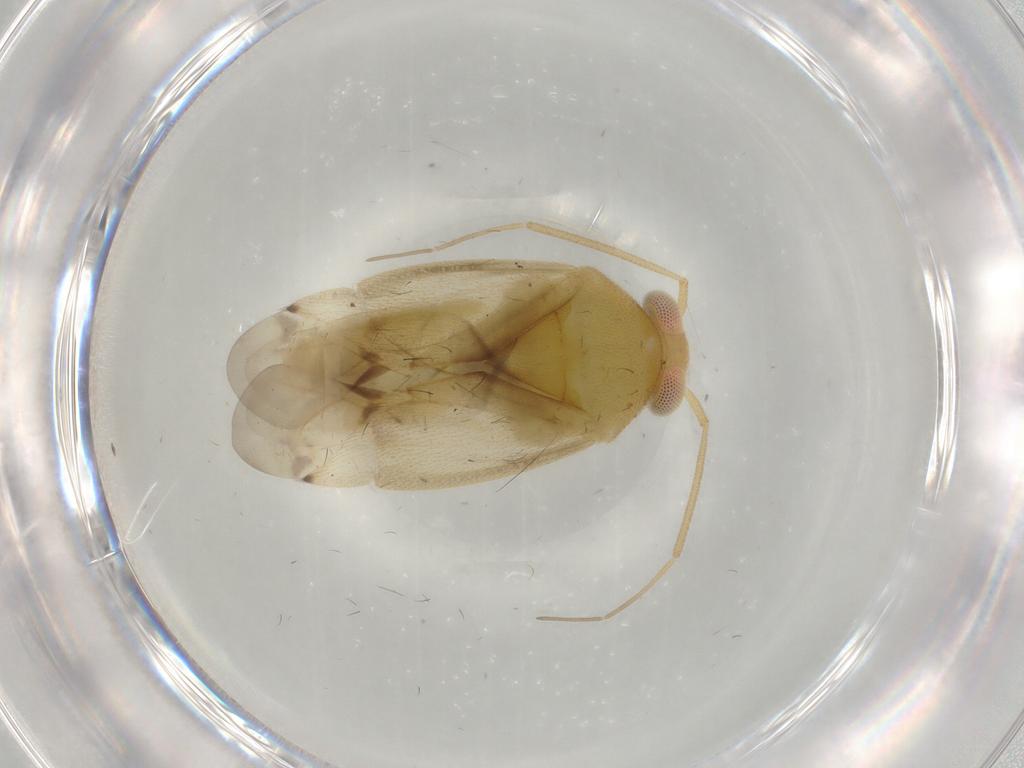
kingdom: Animalia
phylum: Arthropoda
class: Insecta
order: Hemiptera
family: Miridae
